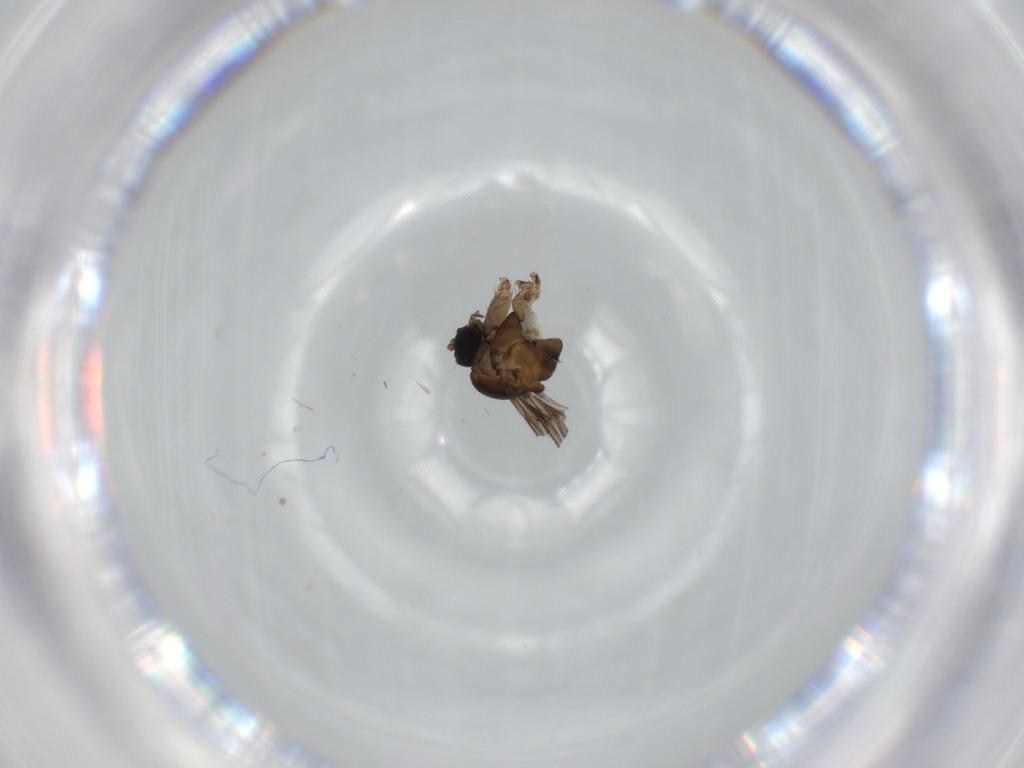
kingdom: Animalia
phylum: Arthropoda
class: Insecta
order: Diptera
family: Sciaridae
